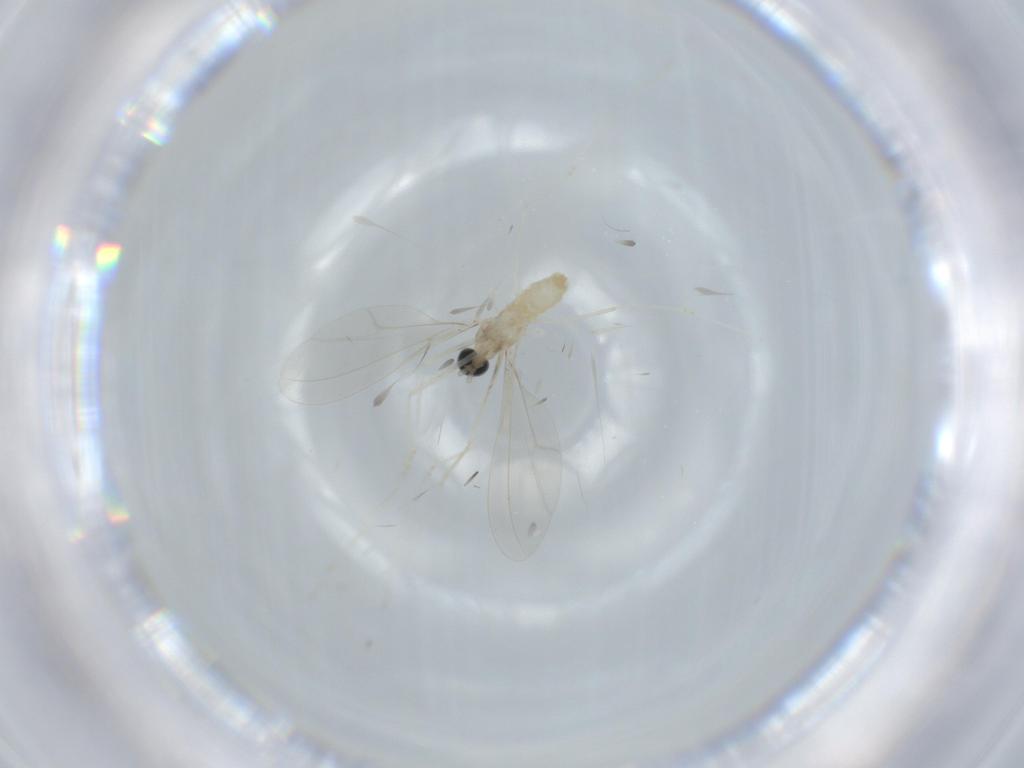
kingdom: Animalia
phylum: Arthropoda
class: Insecta
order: Diptera
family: Cecidomyiidae
